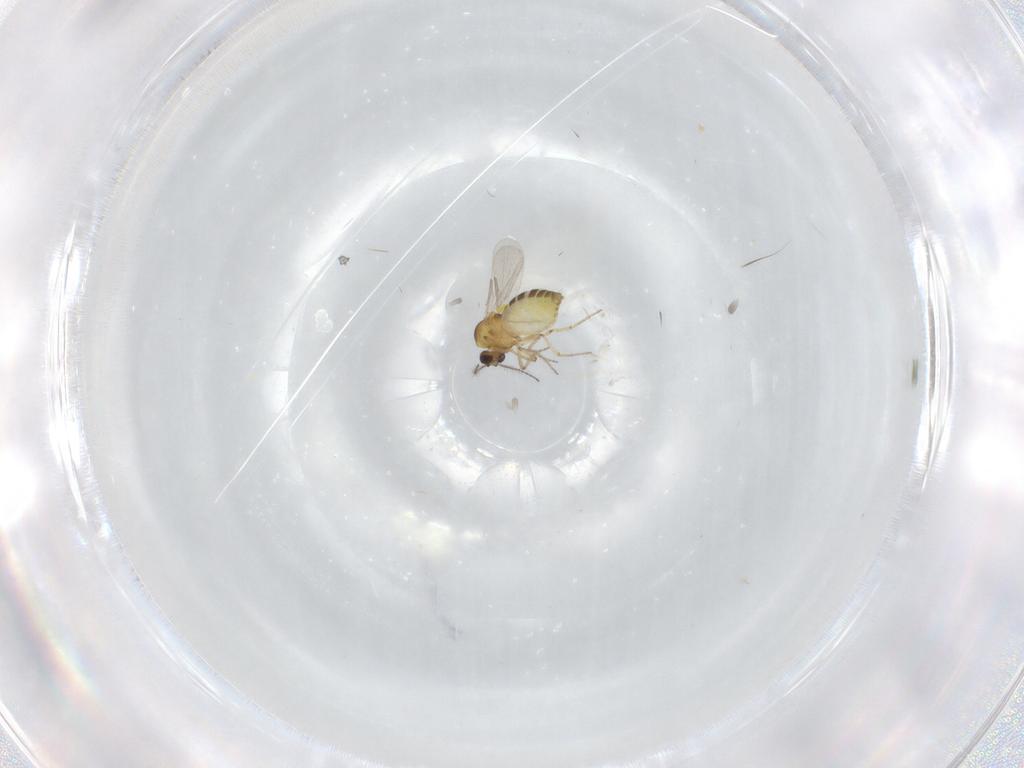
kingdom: Animalia
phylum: Arthropoda
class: Insecta
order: Diptera
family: Ceratopogonidae
